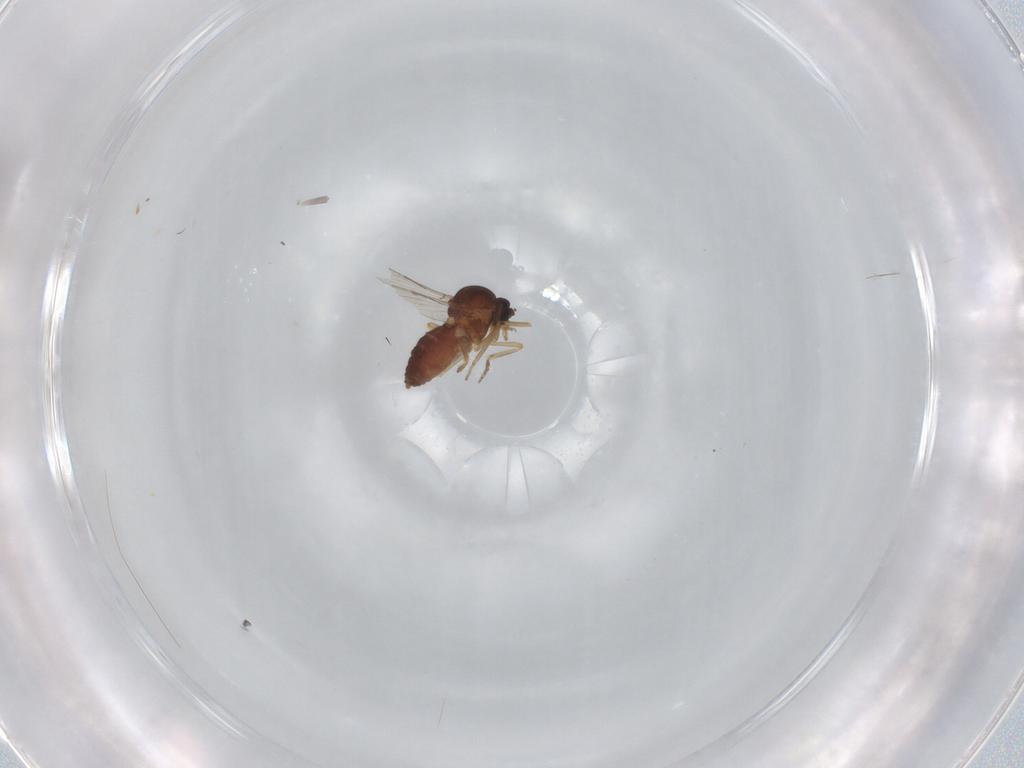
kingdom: Animalia
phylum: Arthropoda
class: Insecta
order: Diptera
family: Ceratopogonidae
